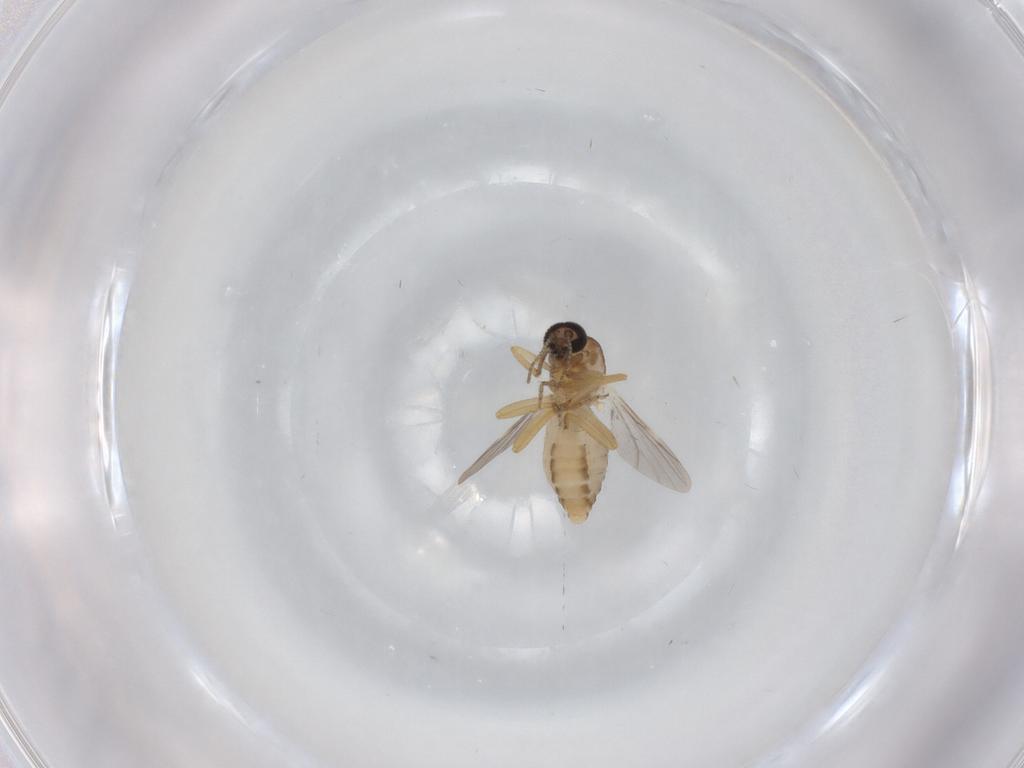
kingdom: Animalia
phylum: Arthropoda
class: Insecta
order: Diptera
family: Ceratopogonidae
